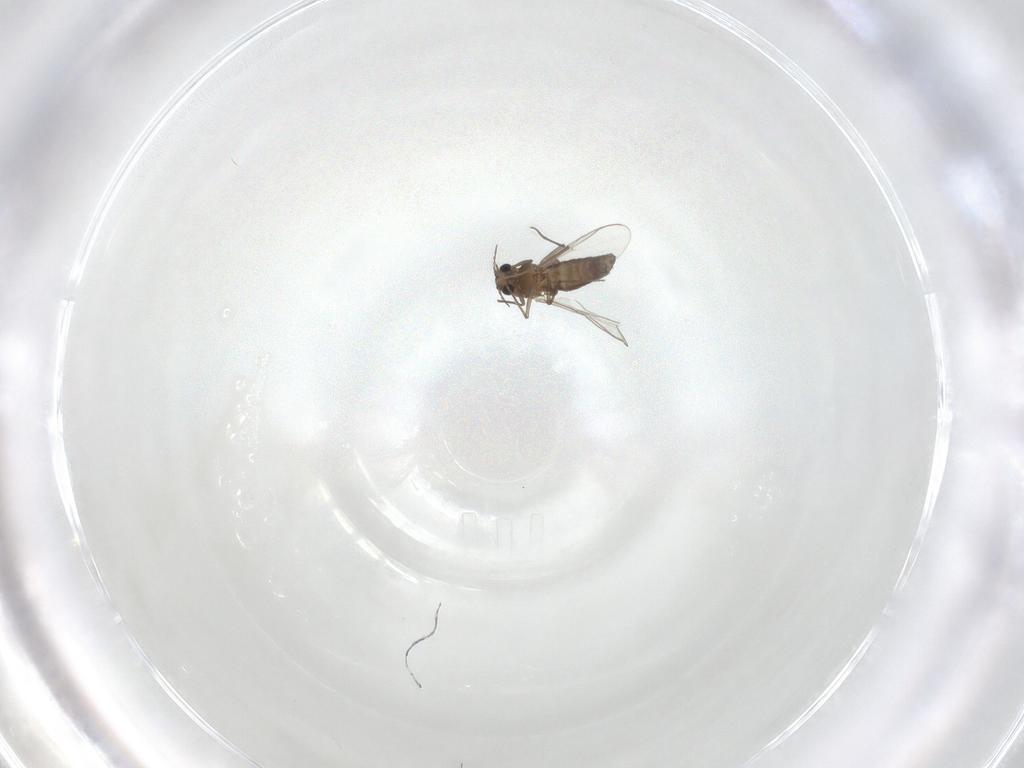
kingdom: Animalia
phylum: Arthropoda
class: Insecta
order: Diptera
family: Chironomidae
